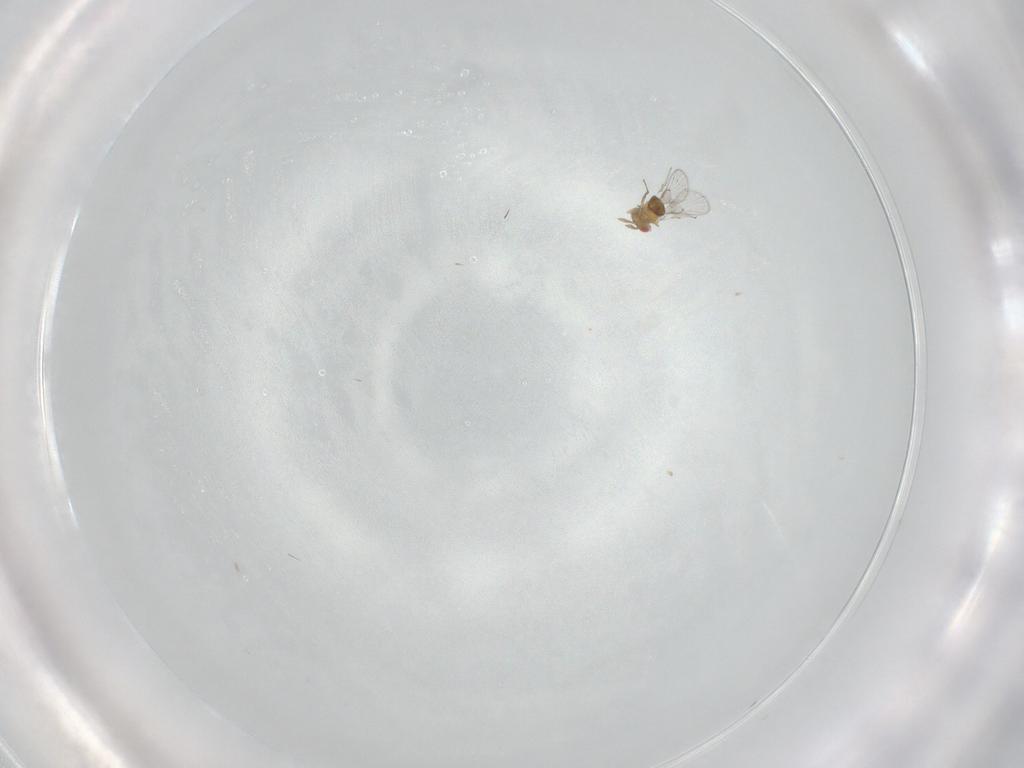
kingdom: Animalia
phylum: Arthropoda
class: Insecta
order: Hymenoptera
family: Trichogrammatidae
